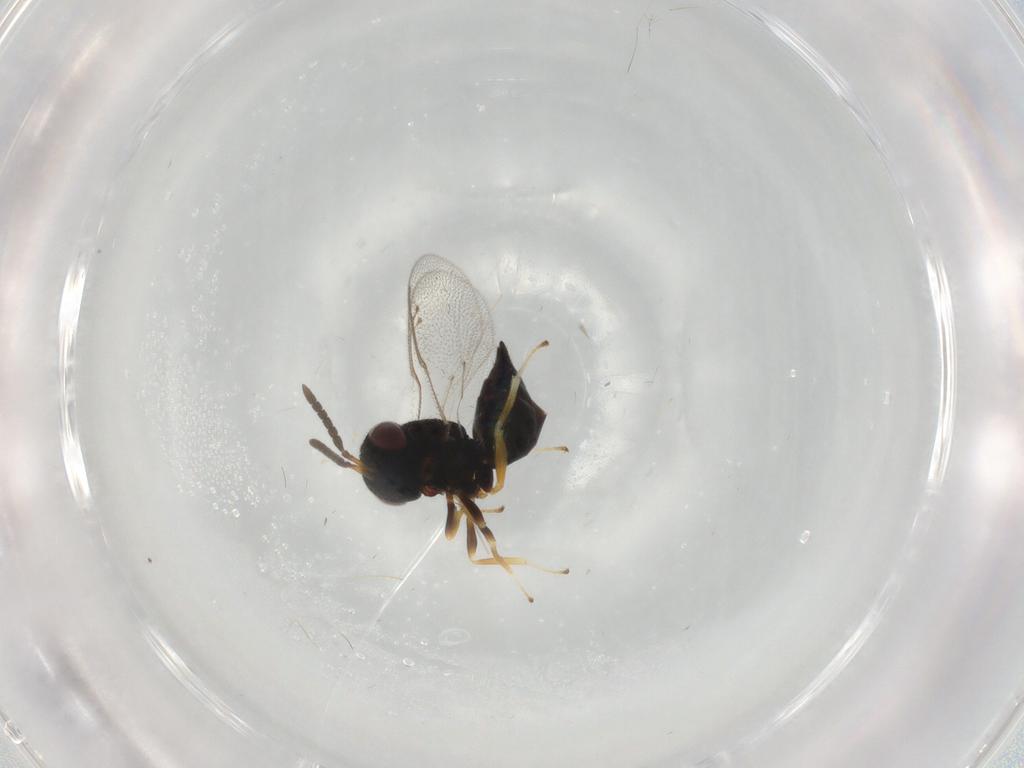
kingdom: Animalia
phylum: Arthropoda
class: Insecta
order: Hymenoptera
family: Pteromalidae
